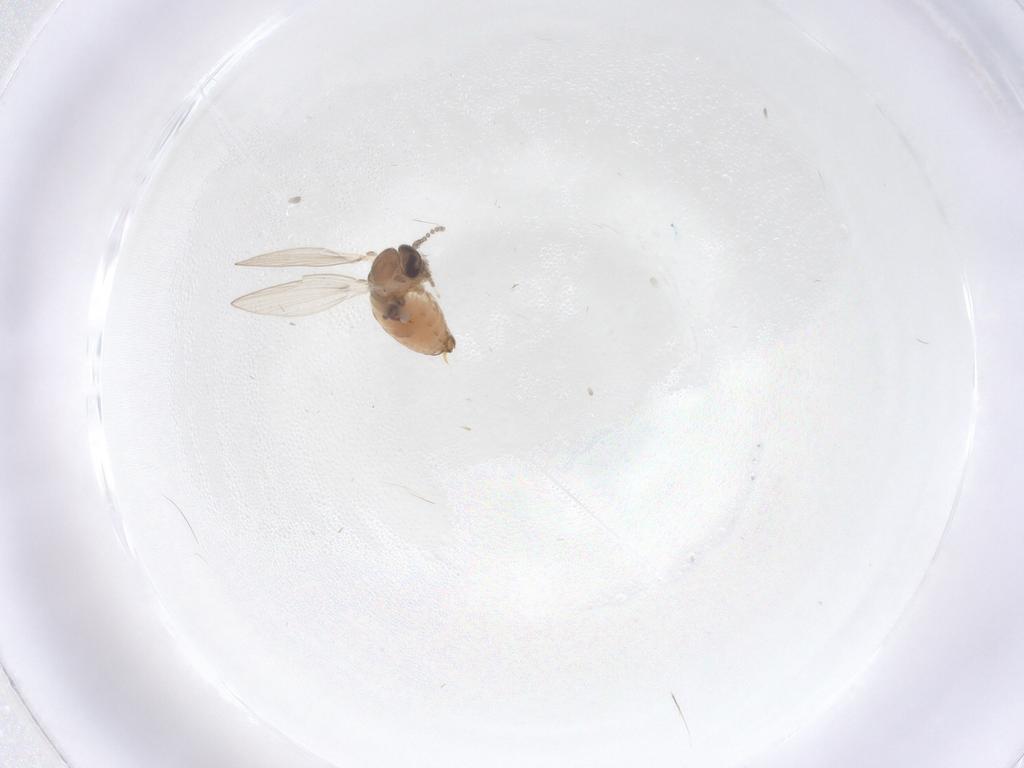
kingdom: Animalia
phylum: Arthropoda
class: Insecta
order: Diptera
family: Psychodidae
